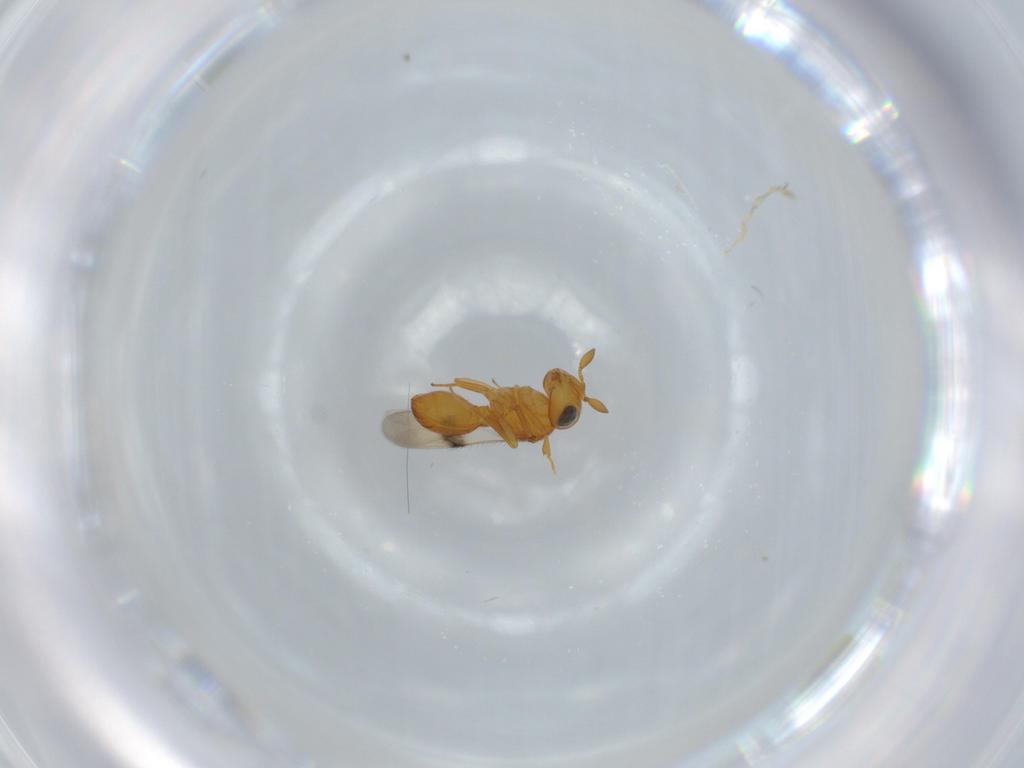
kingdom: Animalia
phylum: Arthropoda
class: Insecta
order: Hymenoptera
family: Scelionidae
